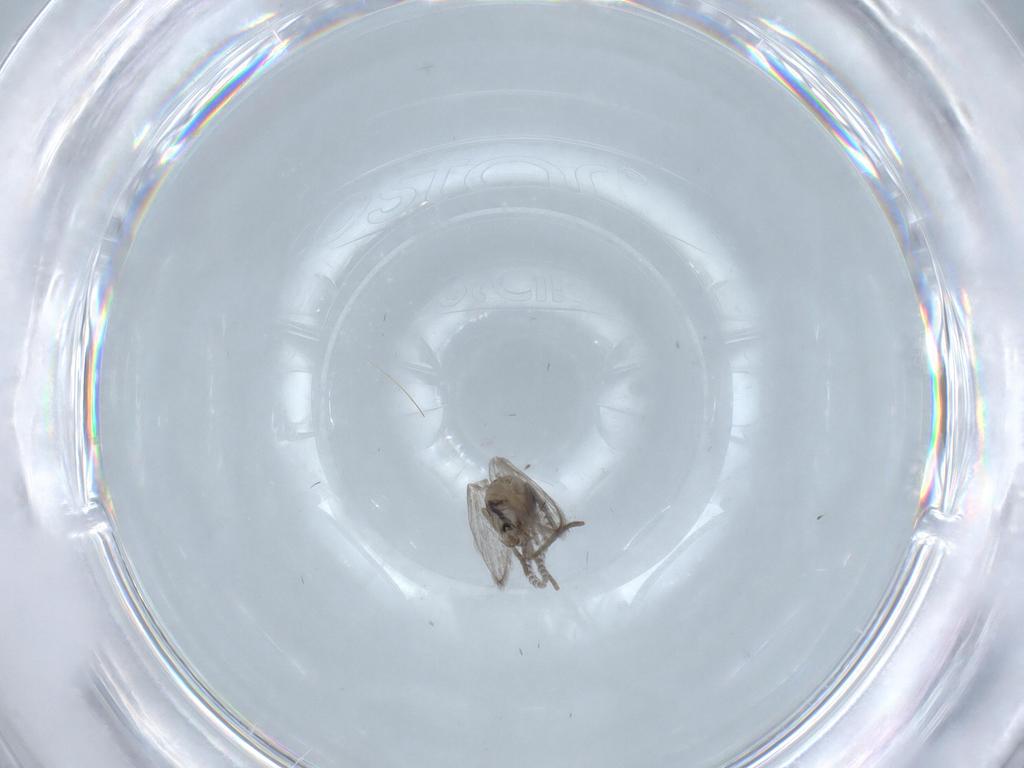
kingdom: Animalia
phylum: Arthropoda
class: Insecta
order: Diptera
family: Psychodidae
